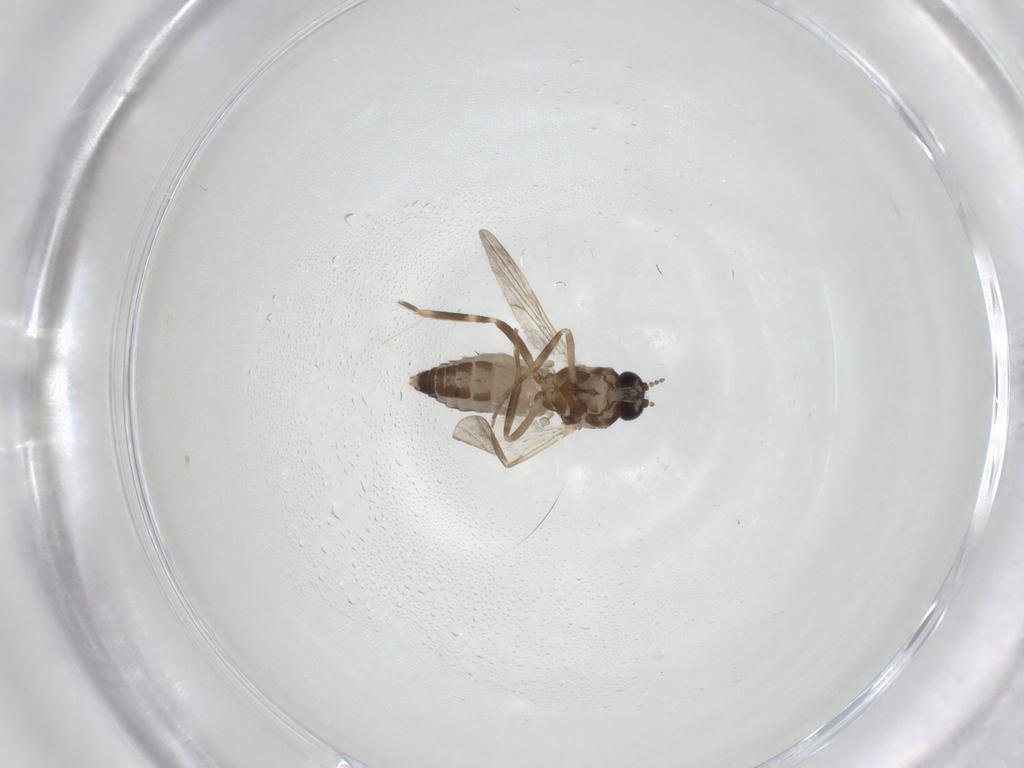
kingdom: Animalia
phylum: Arthropoda
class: Insecta
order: Diptera
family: Ceratopogonidae
